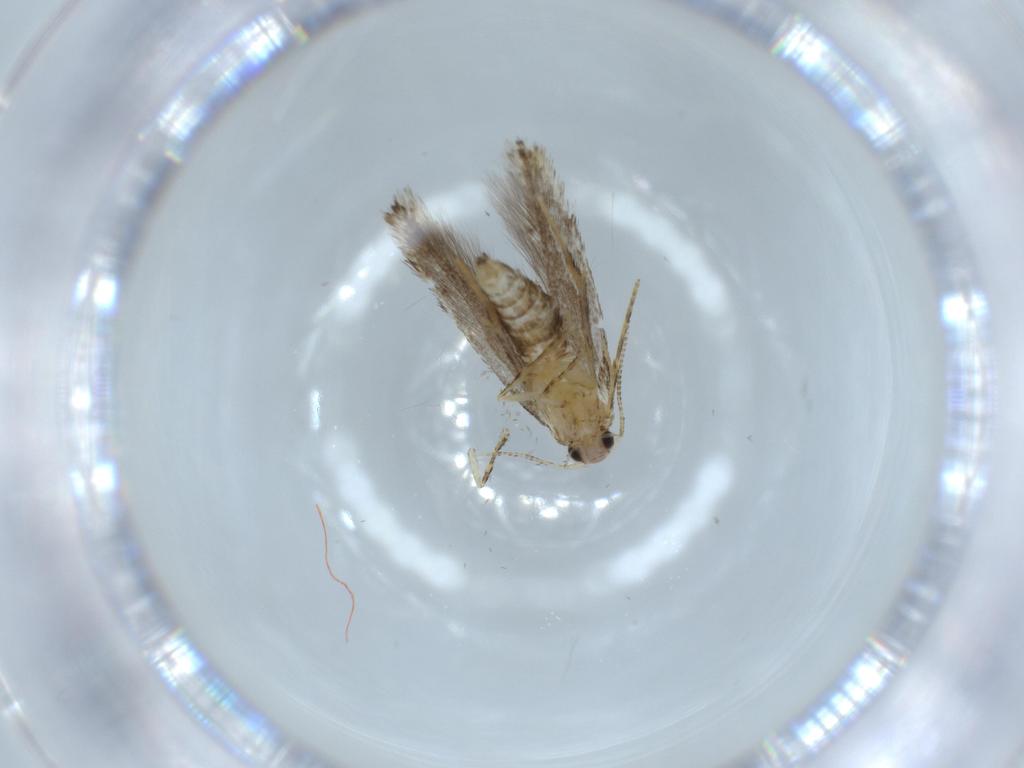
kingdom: Animalia
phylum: Arthropoda
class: Insecta
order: Lepidoptera
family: Tineidae
